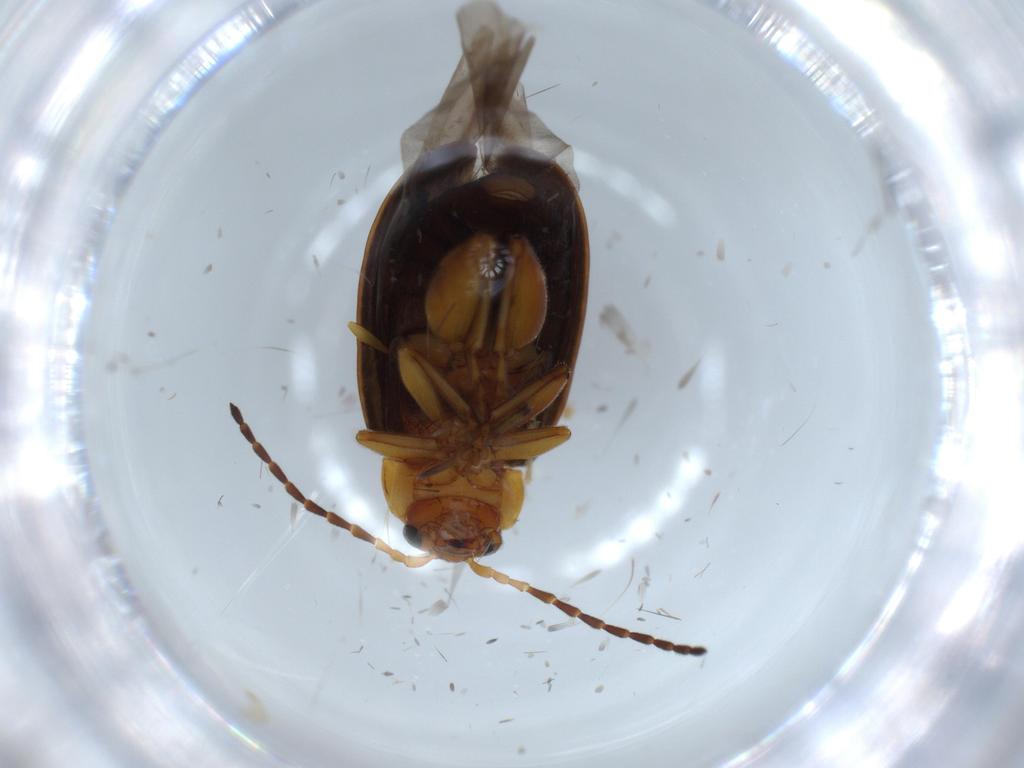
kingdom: Animalia
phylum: Arthropoda
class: Insecta
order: Coleoptera
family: Chrysomelidae
